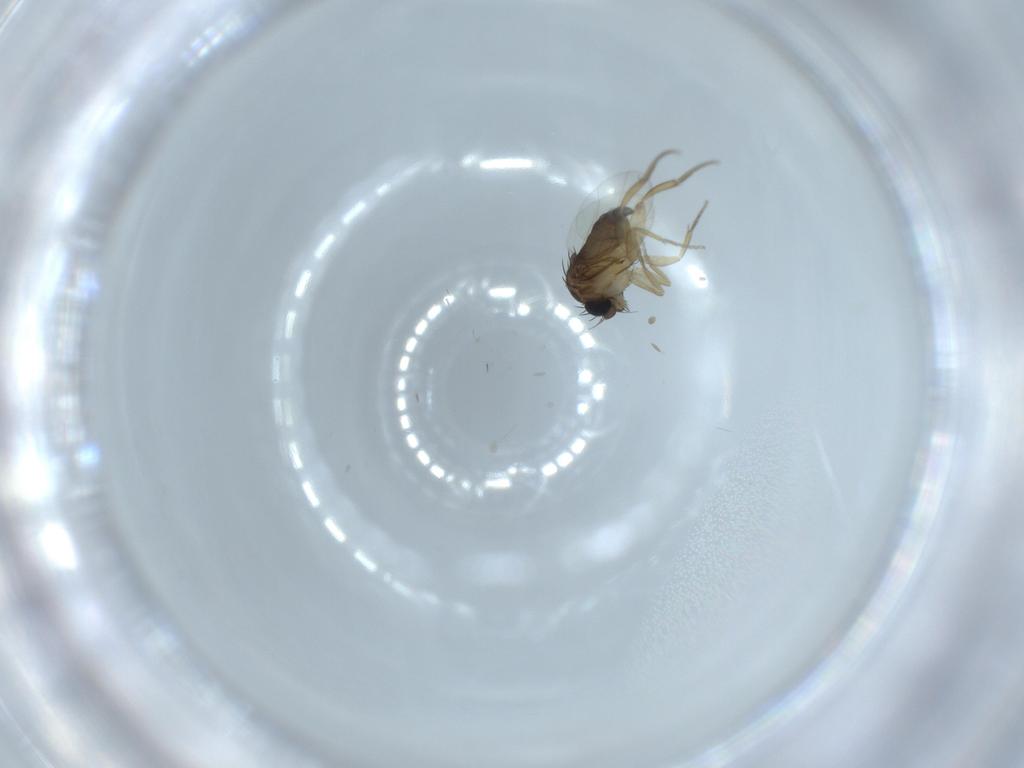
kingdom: Animalia
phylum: Arthropoda
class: Insecta
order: Diptera
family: Phoridae
